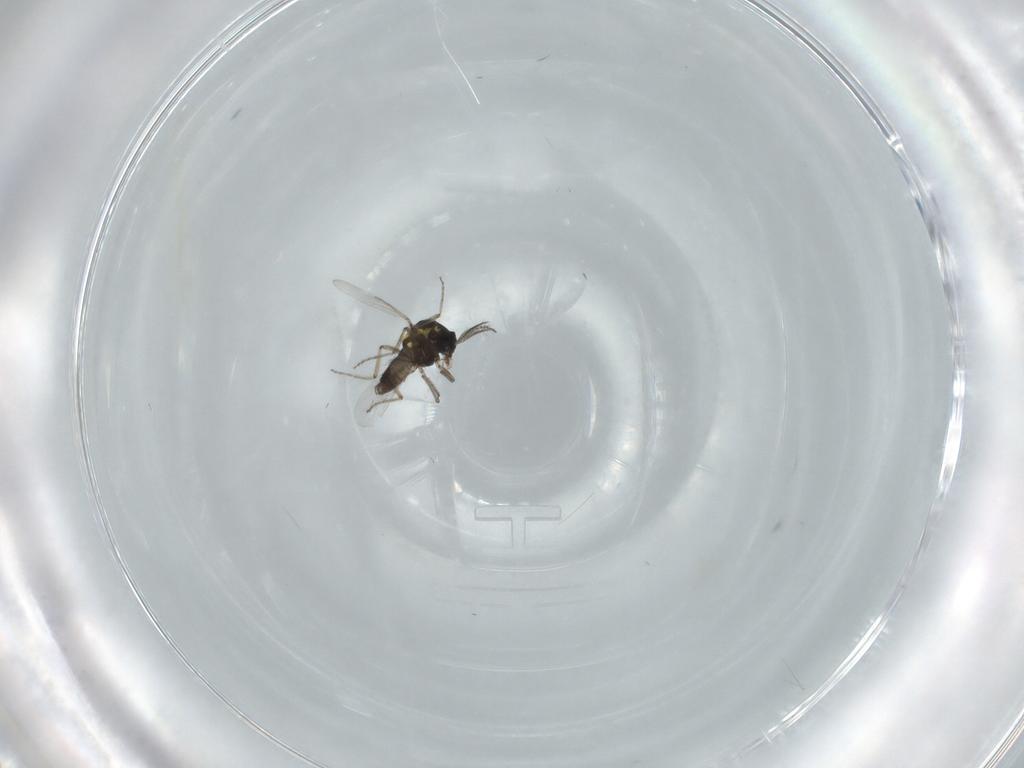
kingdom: Animalia
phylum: Arthropoda
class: Insecta
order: Diptera
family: Ceratopogonidae
